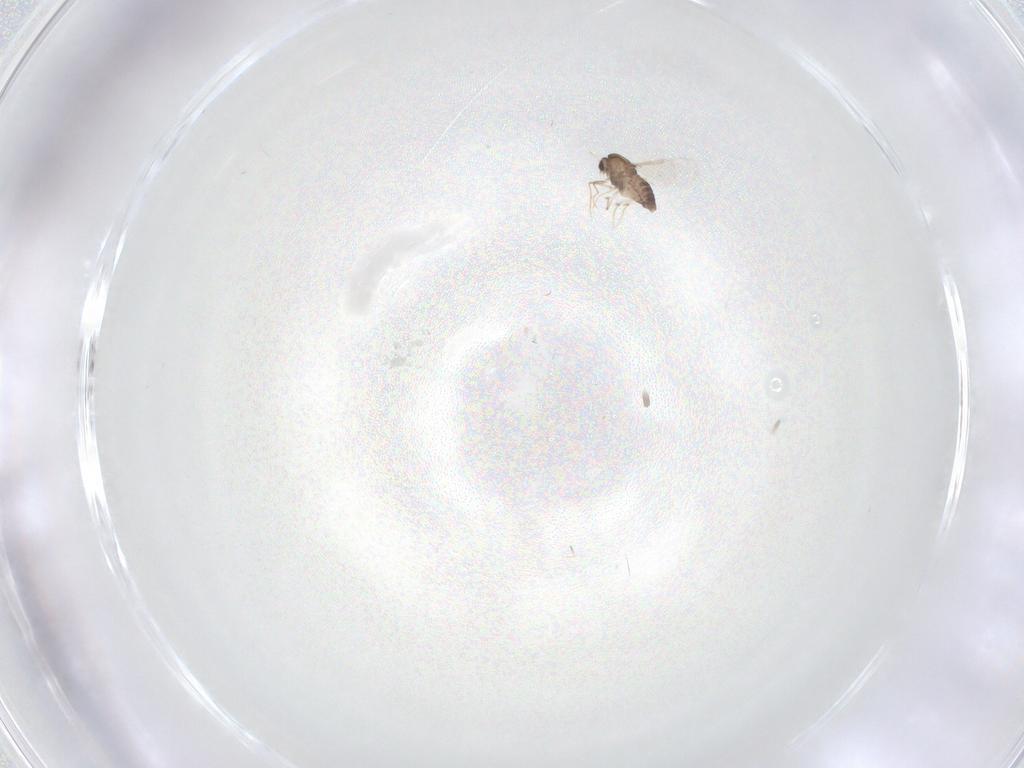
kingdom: Animalia
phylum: Arthropoda
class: Insecta
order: Diptera
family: Chironomidae
